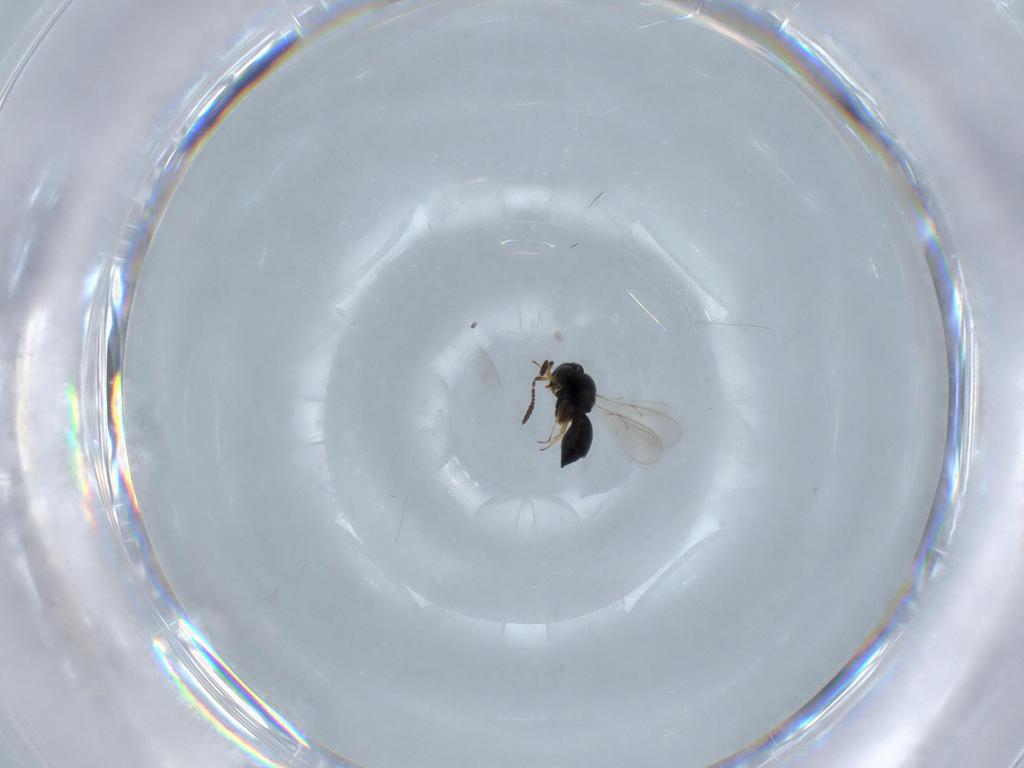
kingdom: Animalia
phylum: Arthropoda
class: Insecta
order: Hymenoptera
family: Scelionidae
